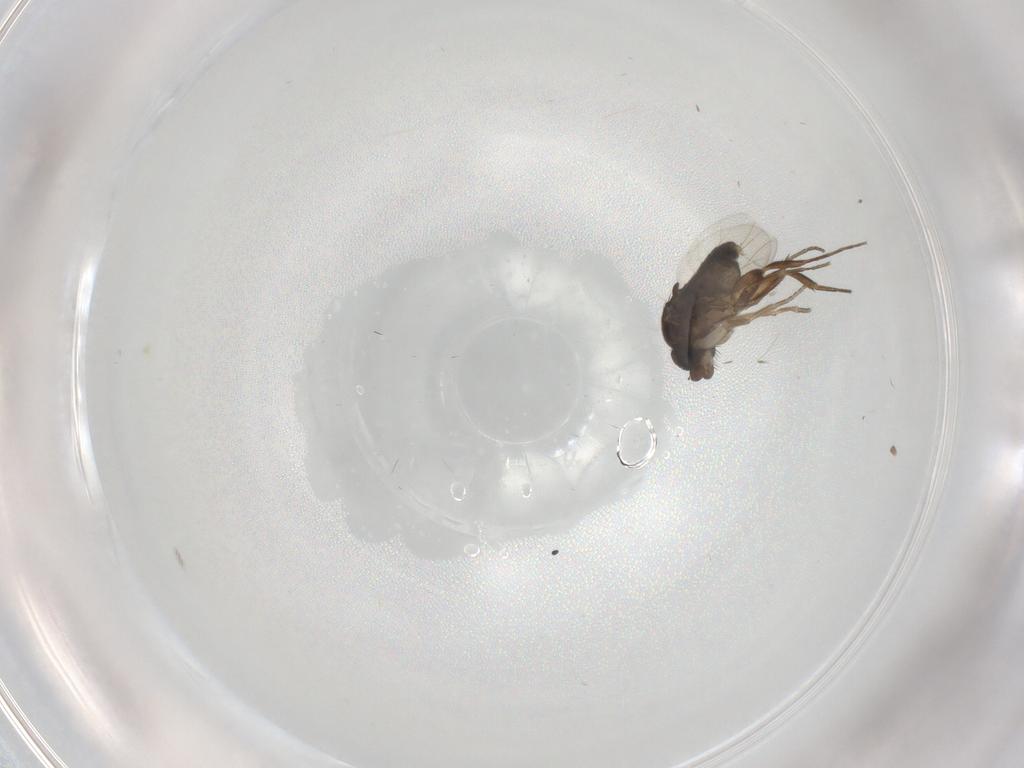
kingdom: Animalia
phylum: Arthropoda
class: Insecta
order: Diptera
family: Phoridae
